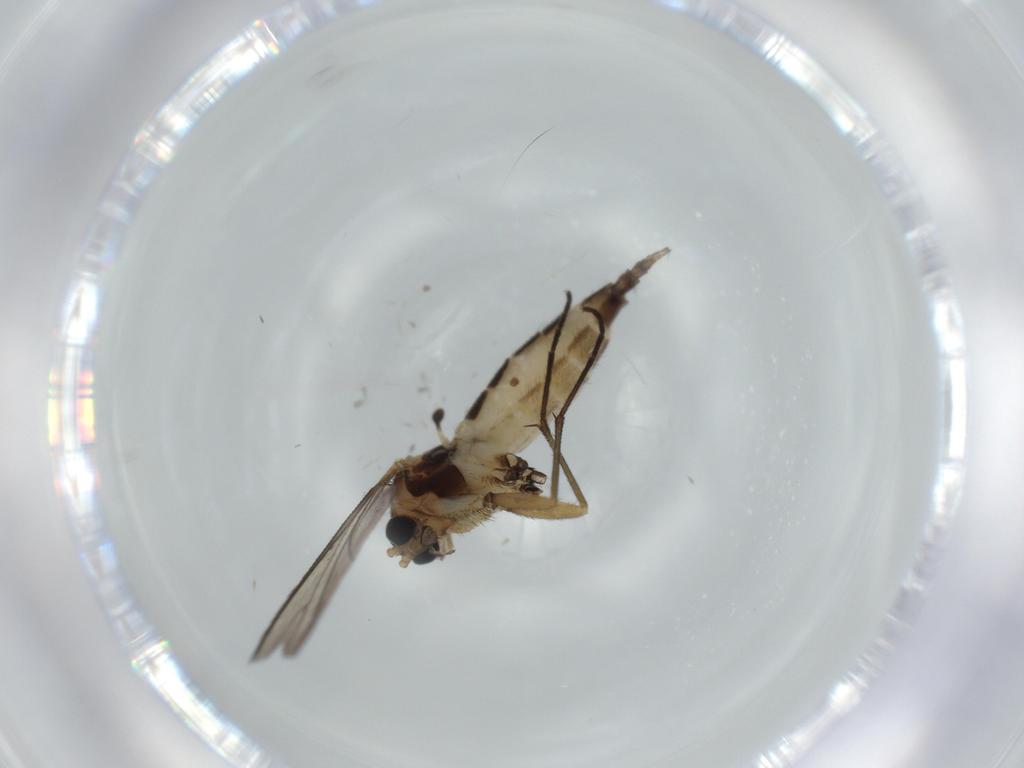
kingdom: Animalia
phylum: Arthropoda
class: Insecta
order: Diptera
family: Sciaridae
